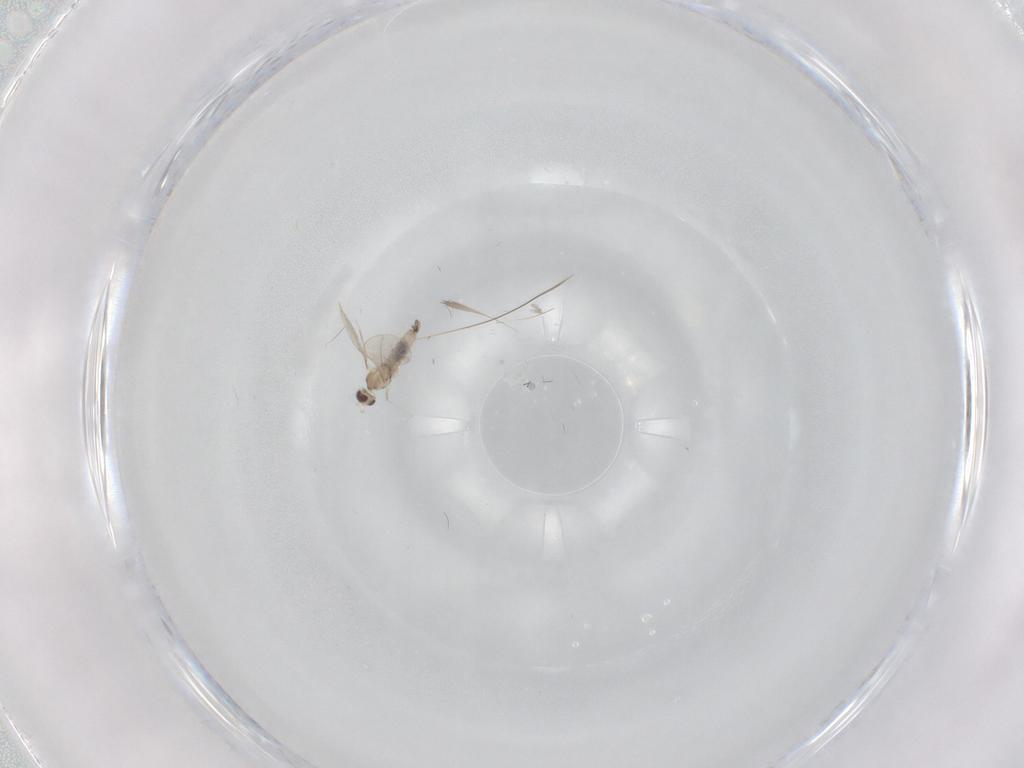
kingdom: Animalia
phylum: Arthropoda
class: Insecta
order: Diptera
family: Cecidomyiidae
